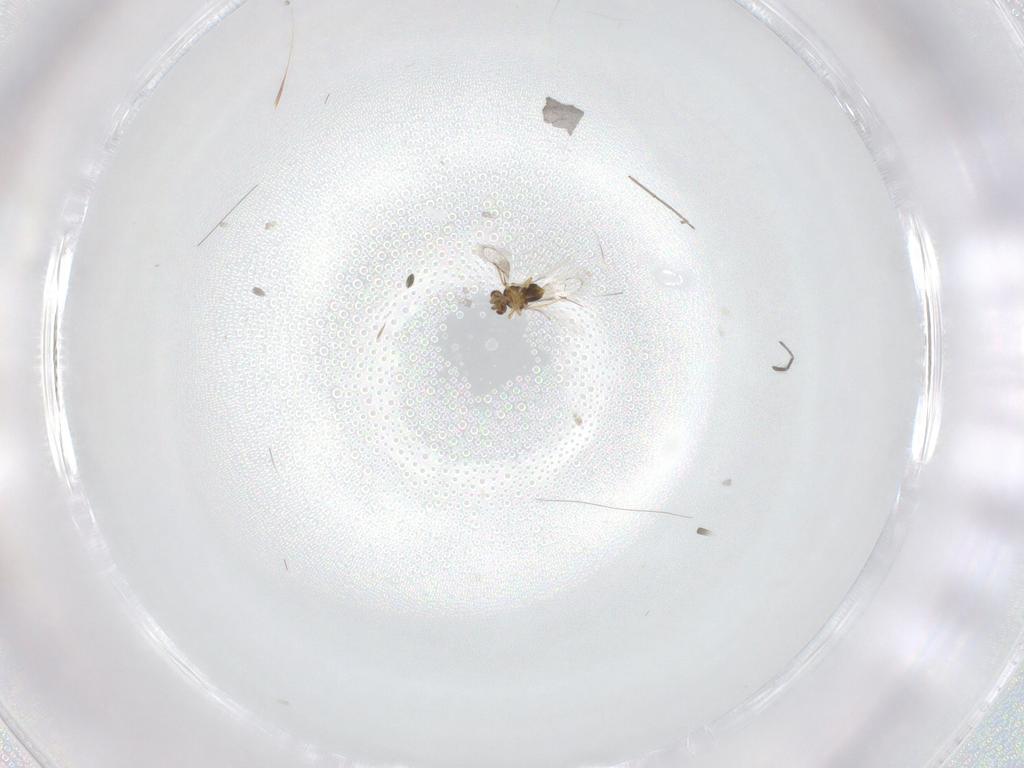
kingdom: Animalia
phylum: Arthropoda
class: Insecta
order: Hymenoptera
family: Aphelinidae
